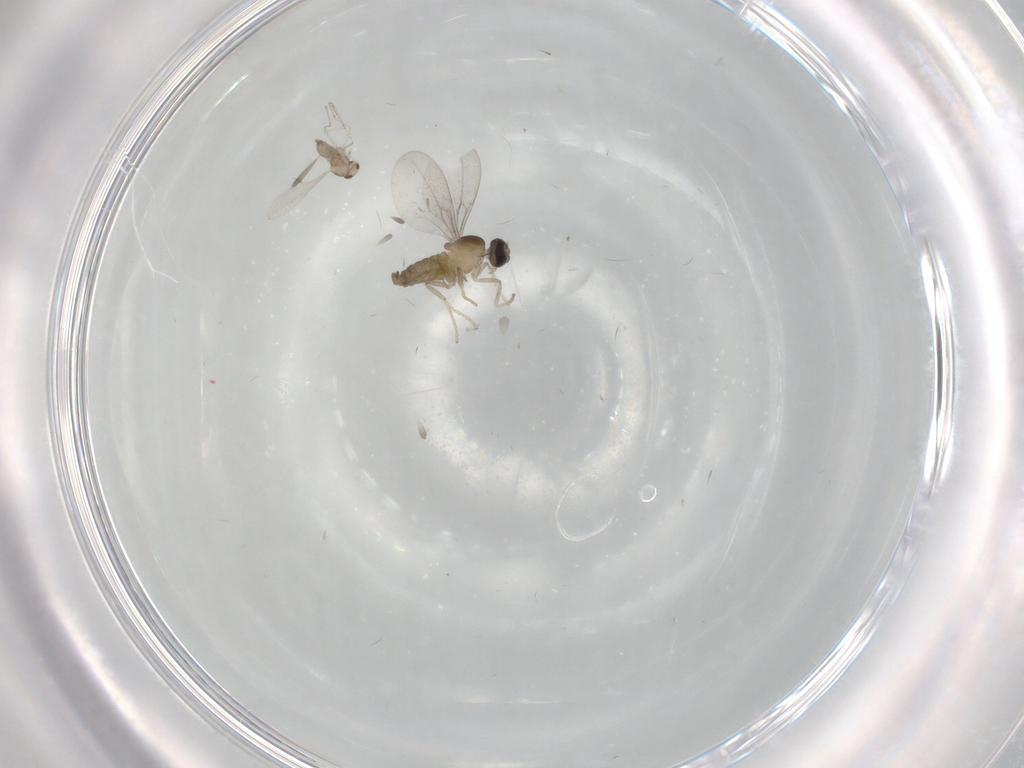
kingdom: Animalia
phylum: Arthropoda
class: Insecta
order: Diptera
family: Cecidomyiidae
